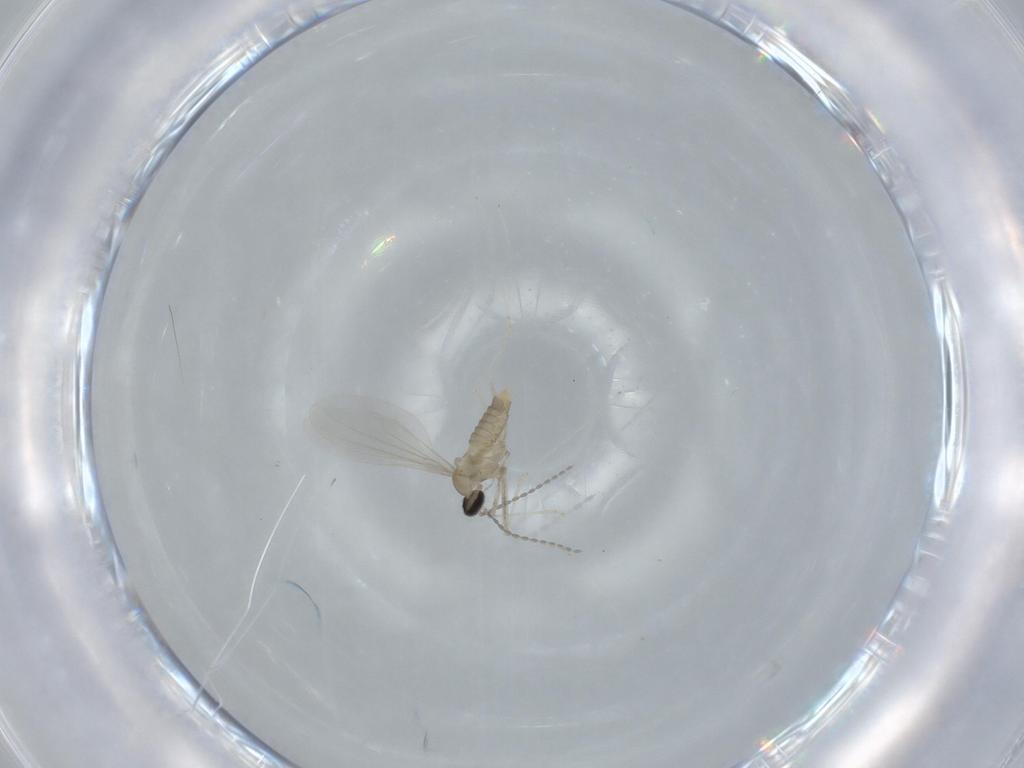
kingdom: Animalia
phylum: Arthropoda
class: Insecta
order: Diptera
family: Cecidomyiidae
